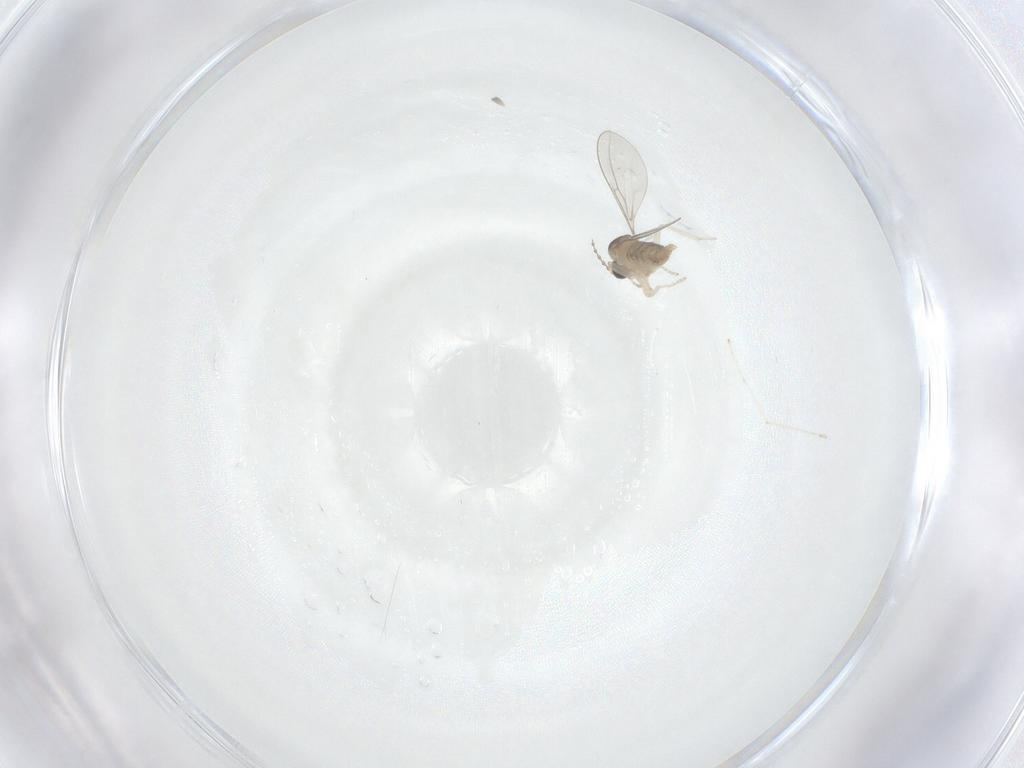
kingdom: Animalia
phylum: Arthropoda
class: Insecta
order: Diptera
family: Cecidomyiidae
